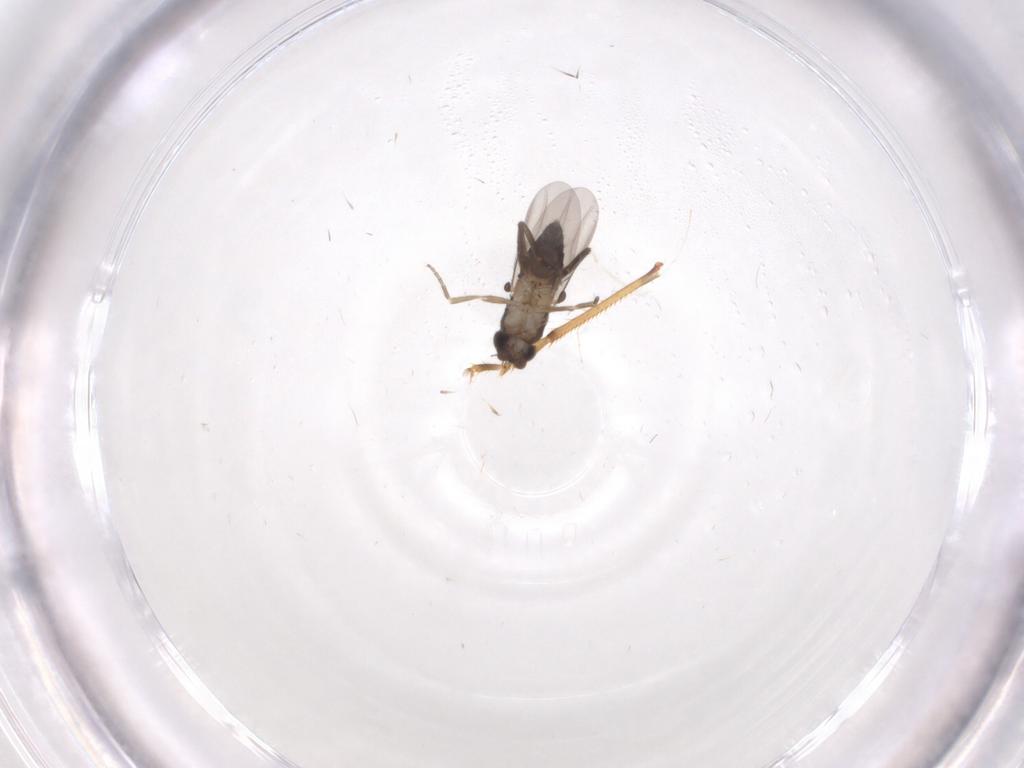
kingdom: Animalia
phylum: Arthropoda
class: Insecta
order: Diptera
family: Phoridae
